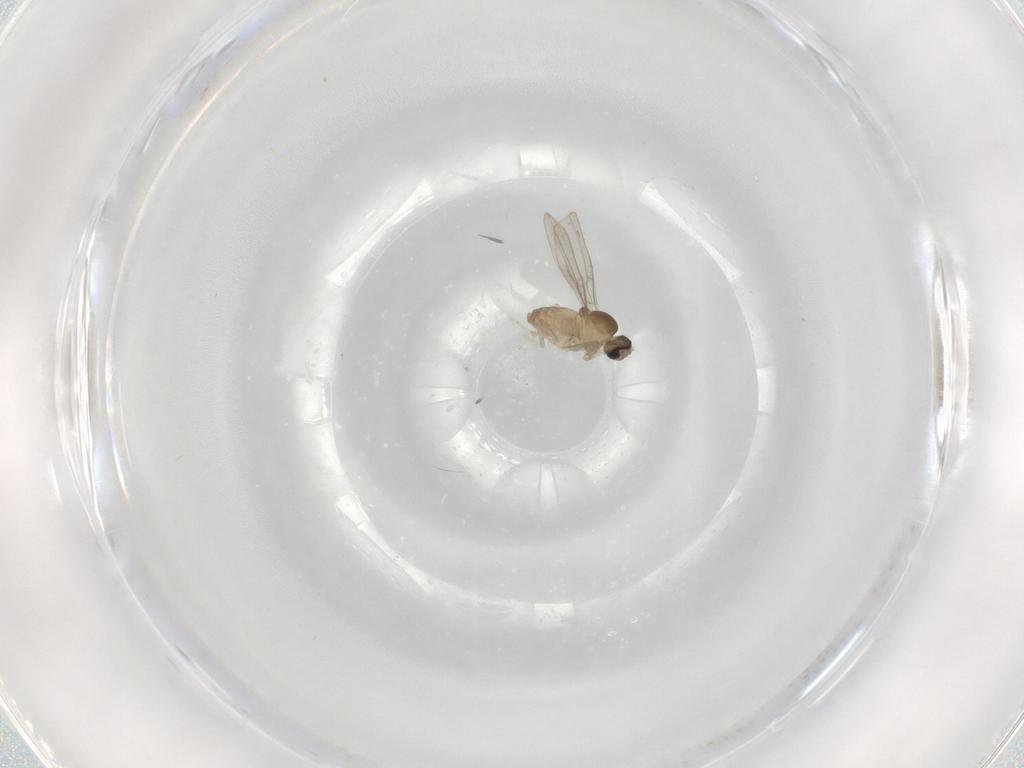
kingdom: Animalia
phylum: Arthropoda
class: Insecta
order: Diptera
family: Cecidomyiidae
